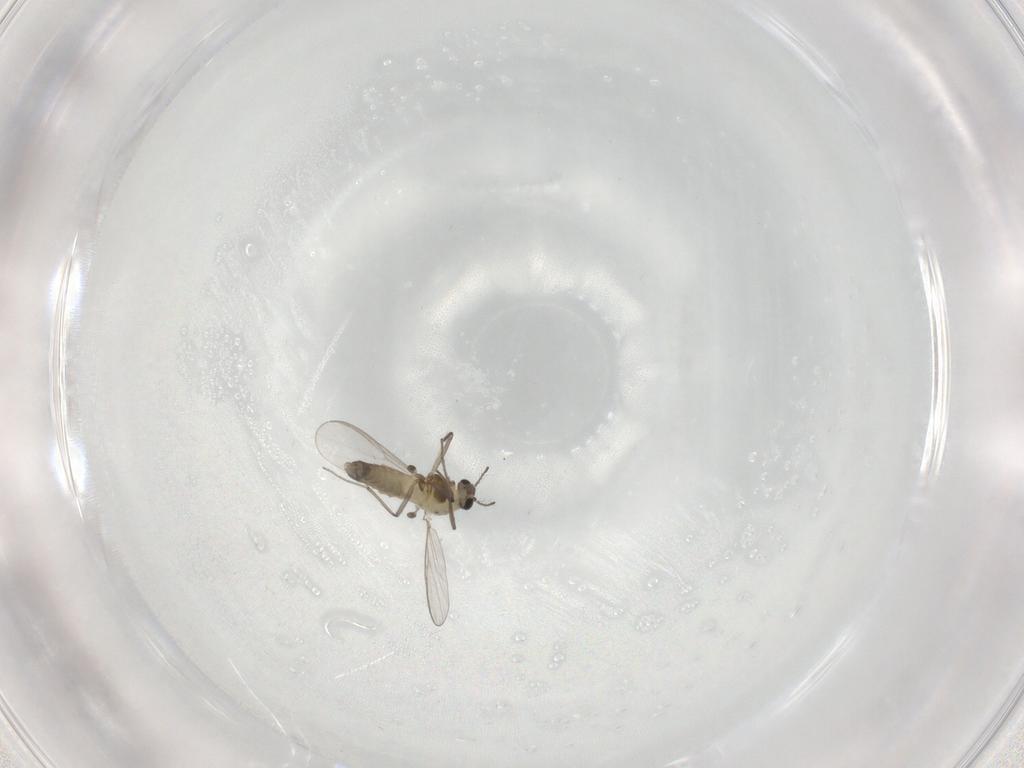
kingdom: Animalia
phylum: Arthropoda
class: Insecta
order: Diptera
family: Chironomidae
